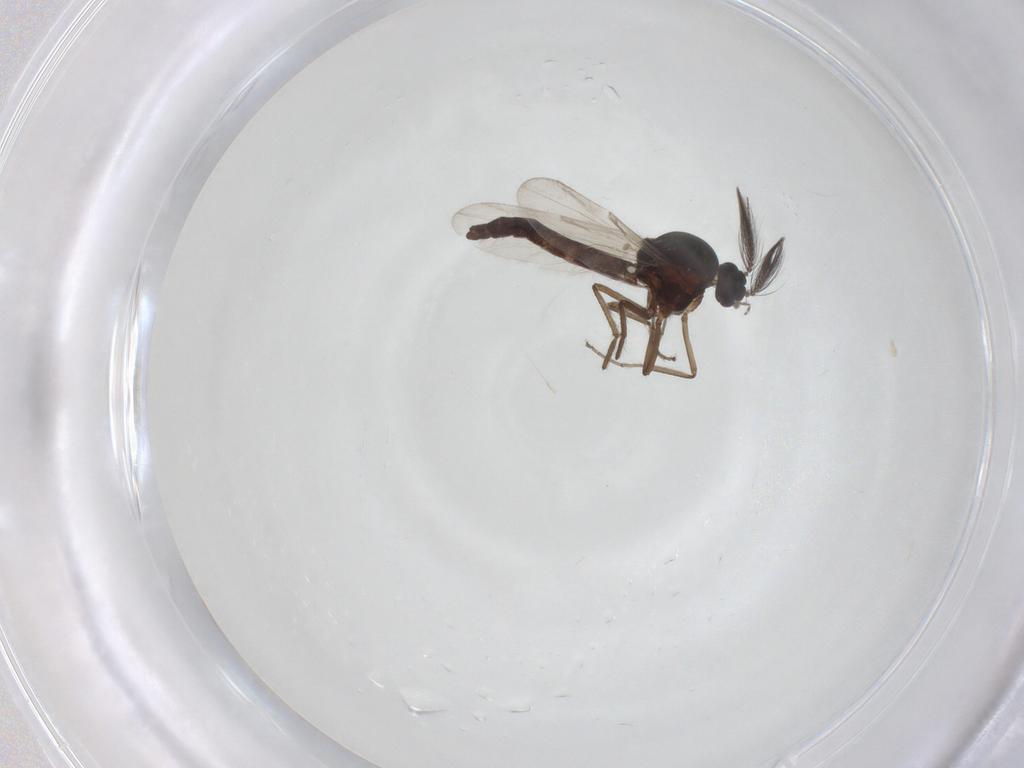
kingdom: Animalia
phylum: Arthropoda
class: Insecta
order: Diptera
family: Ceratopogonidae
